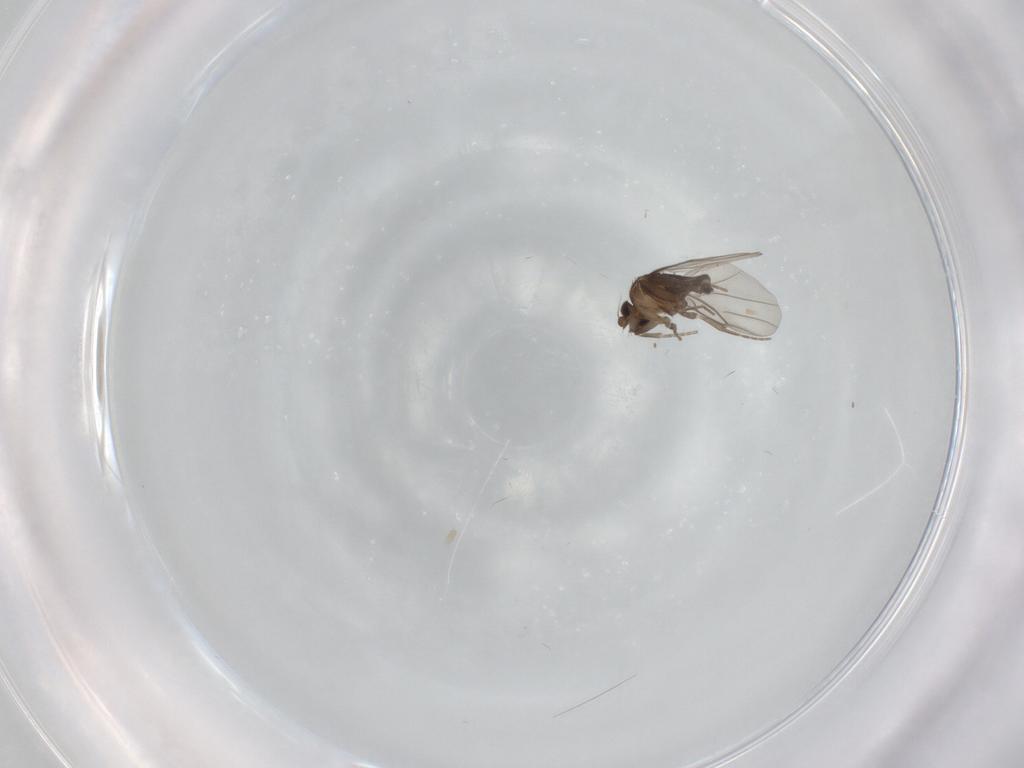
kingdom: Animalia
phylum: Arthropoda
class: Insecta
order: Diptera
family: Cecidomyiidae
